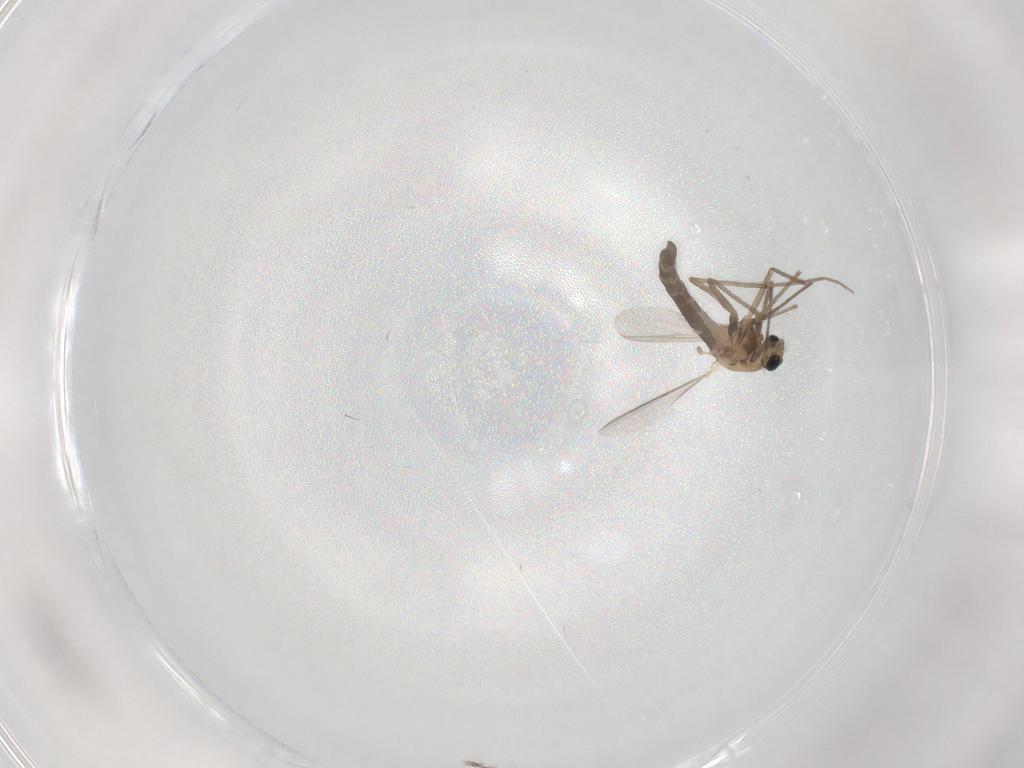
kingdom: Animalia
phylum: Arthropoda
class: Insecta
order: Diptera
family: Chironomidae
